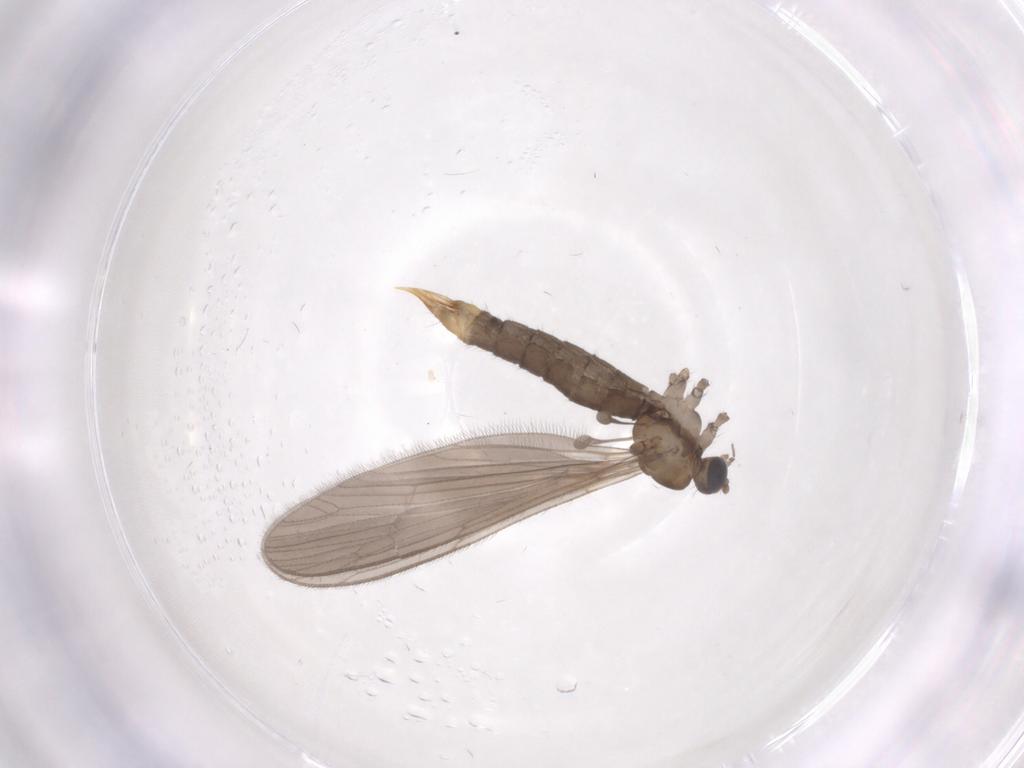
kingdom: Animalia
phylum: Arthropoda
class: Insecta
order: Diptera
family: Limoniidae
